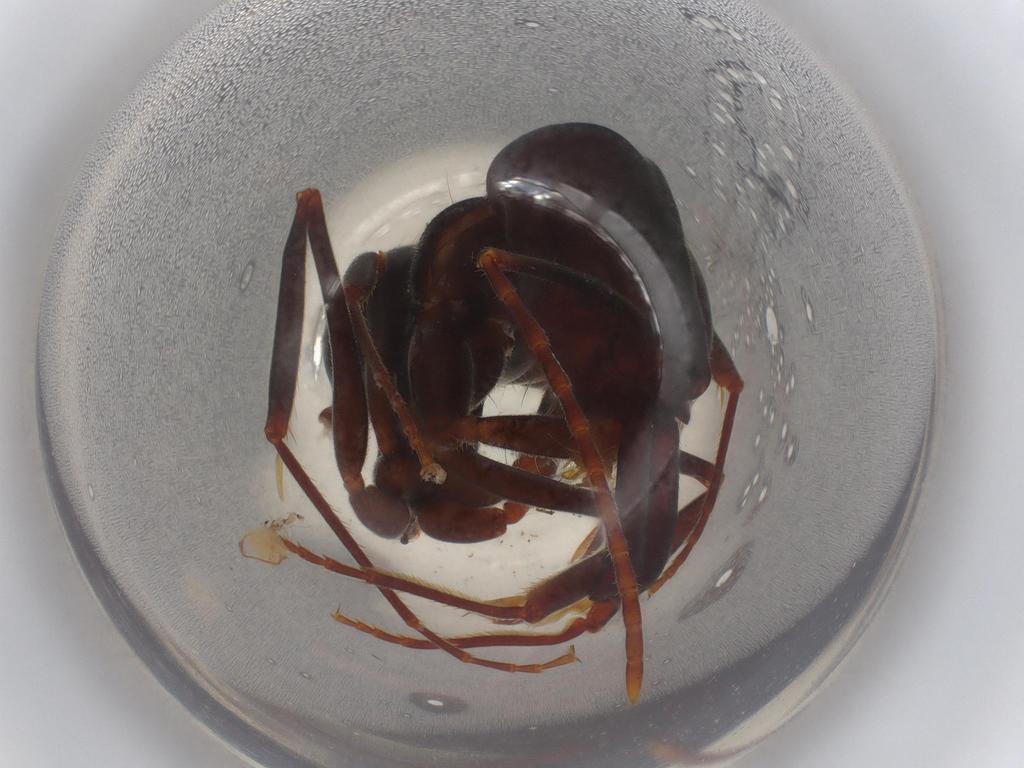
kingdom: Animalia
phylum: Arthropoda
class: Insecta
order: Hymenoptera
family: Formicidae
